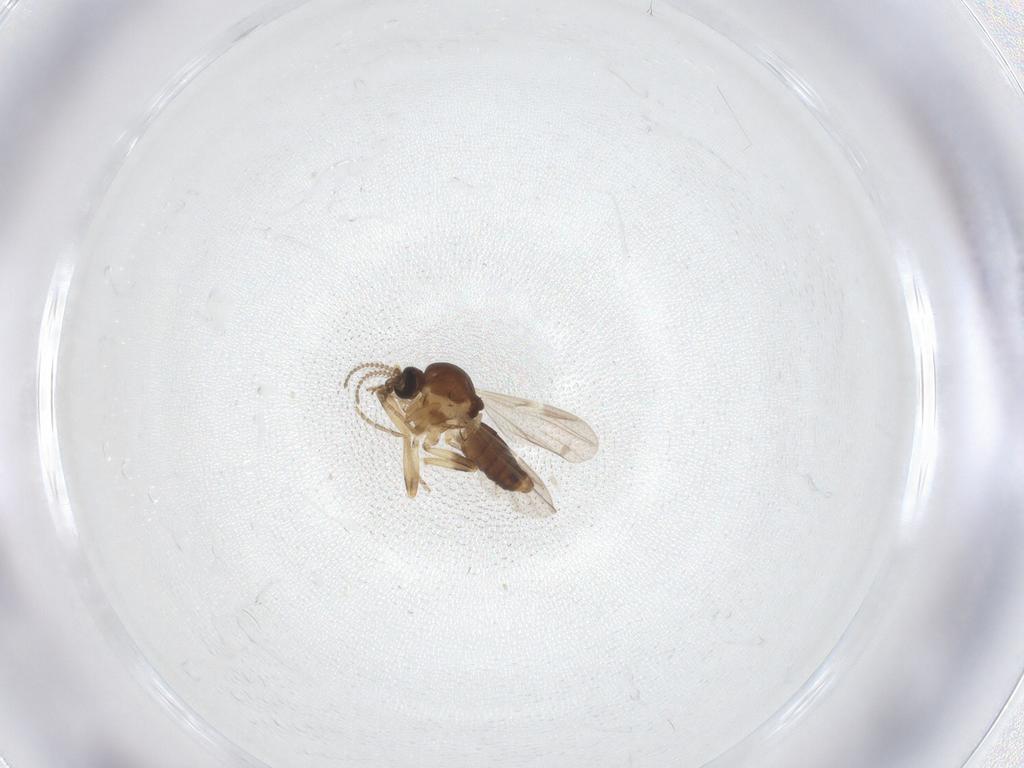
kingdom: Animalia
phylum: Arthropoda
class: Insecta
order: Diptera
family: Ceratopogonidae
